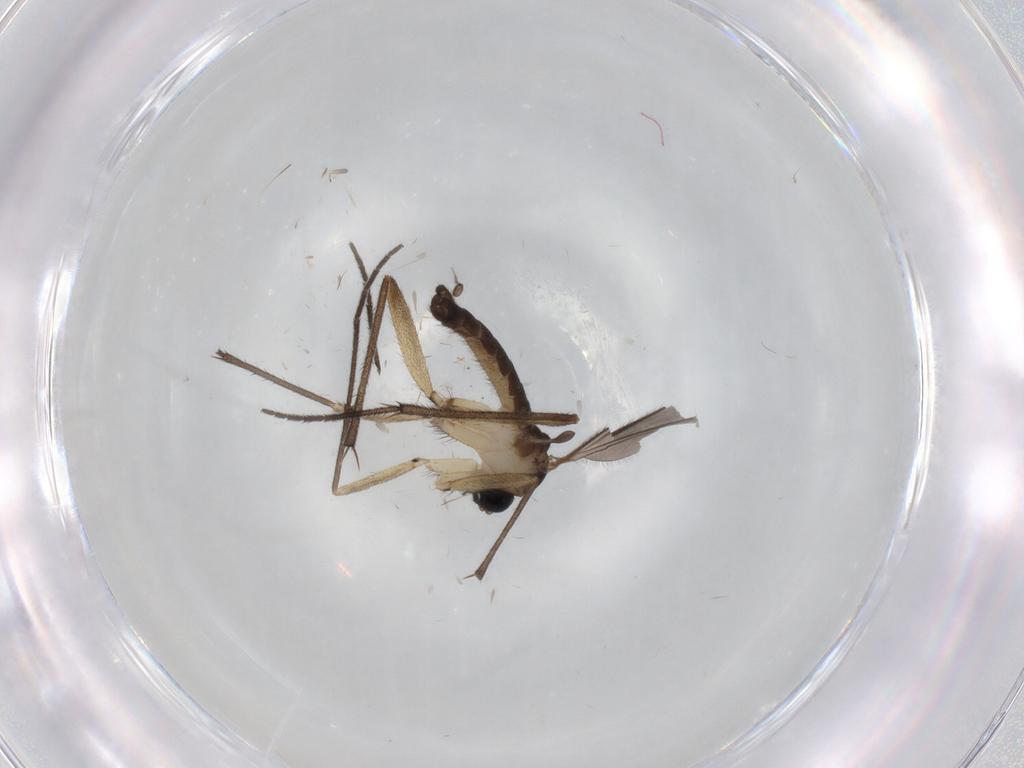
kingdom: Animalia
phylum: Arthropoda
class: Insecta
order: Diptera
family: Sciaridae
